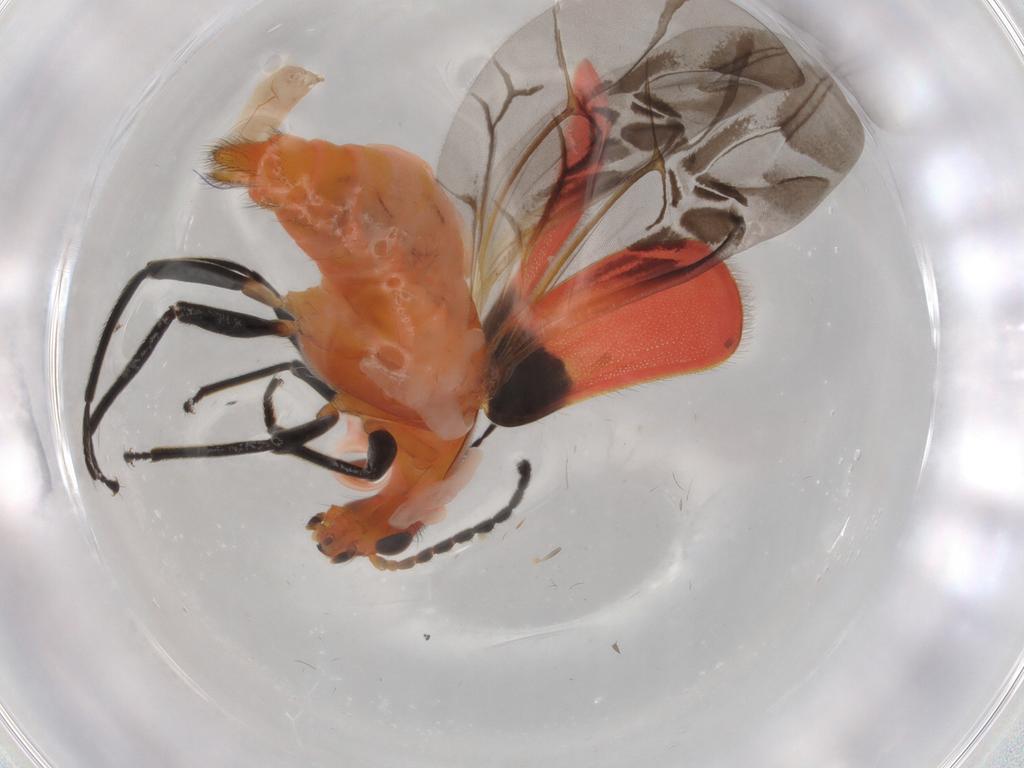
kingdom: Animalia
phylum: Arthropoda
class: Insecta
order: Coleoptera
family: Melyridae
